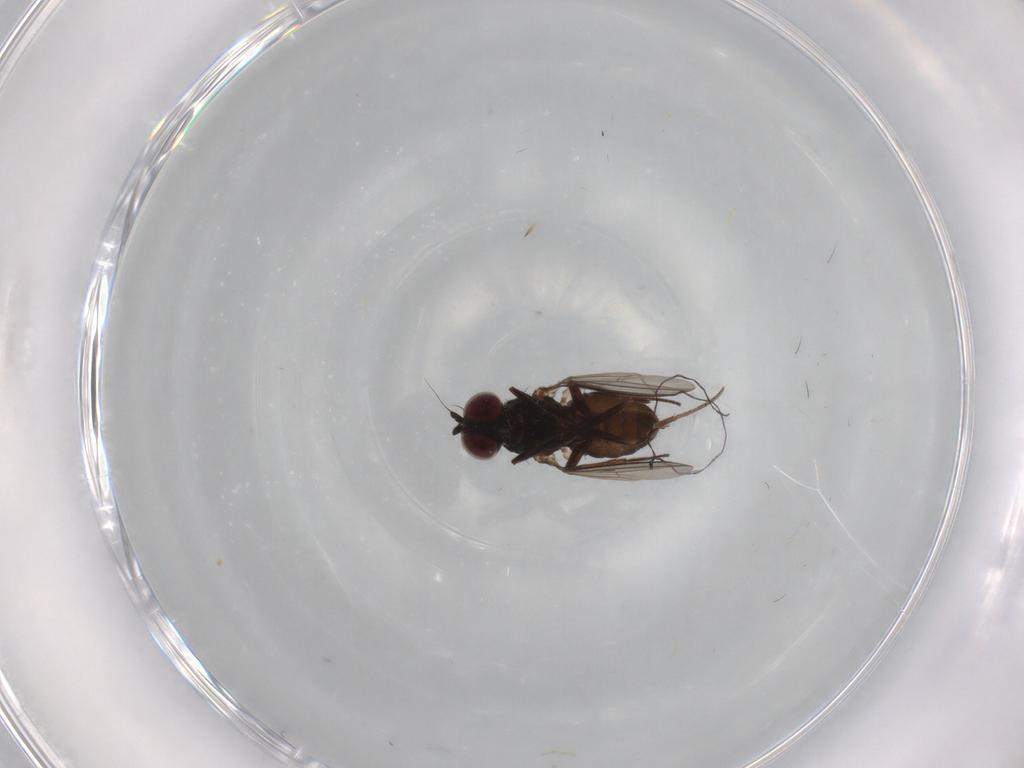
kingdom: Animalia
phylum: Arthropoda
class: Insecta
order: Diptera
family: Dolichopodidae
